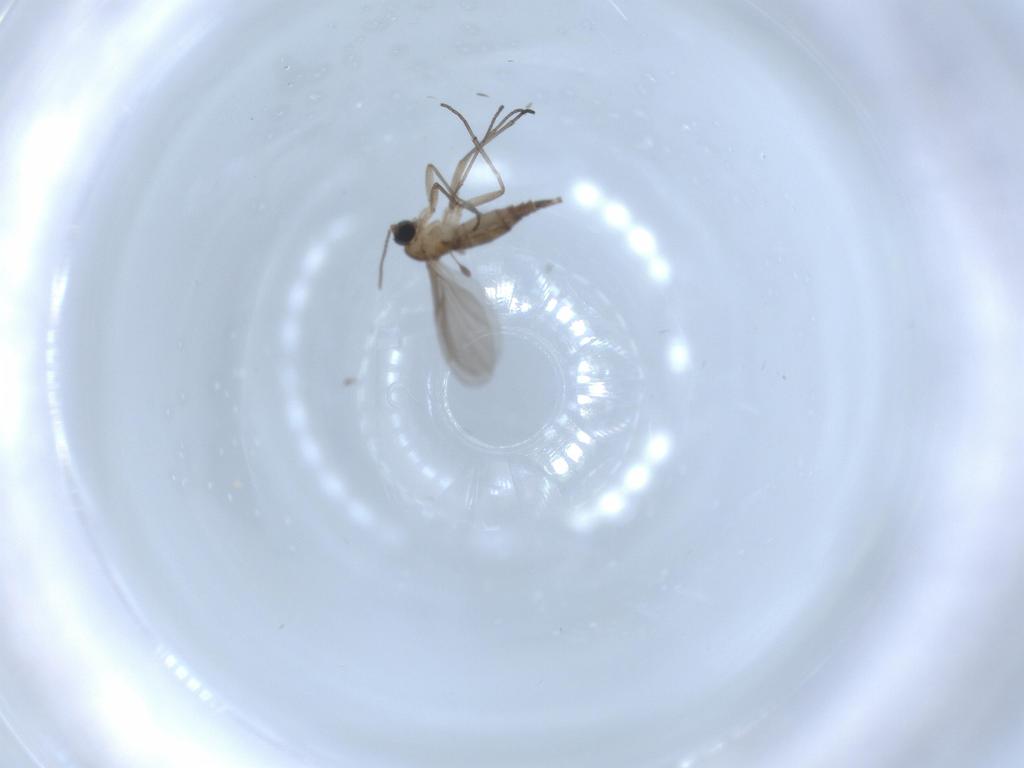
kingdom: Animalia
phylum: Arthropoda
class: Insecta
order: Diptera
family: Sciaridae
